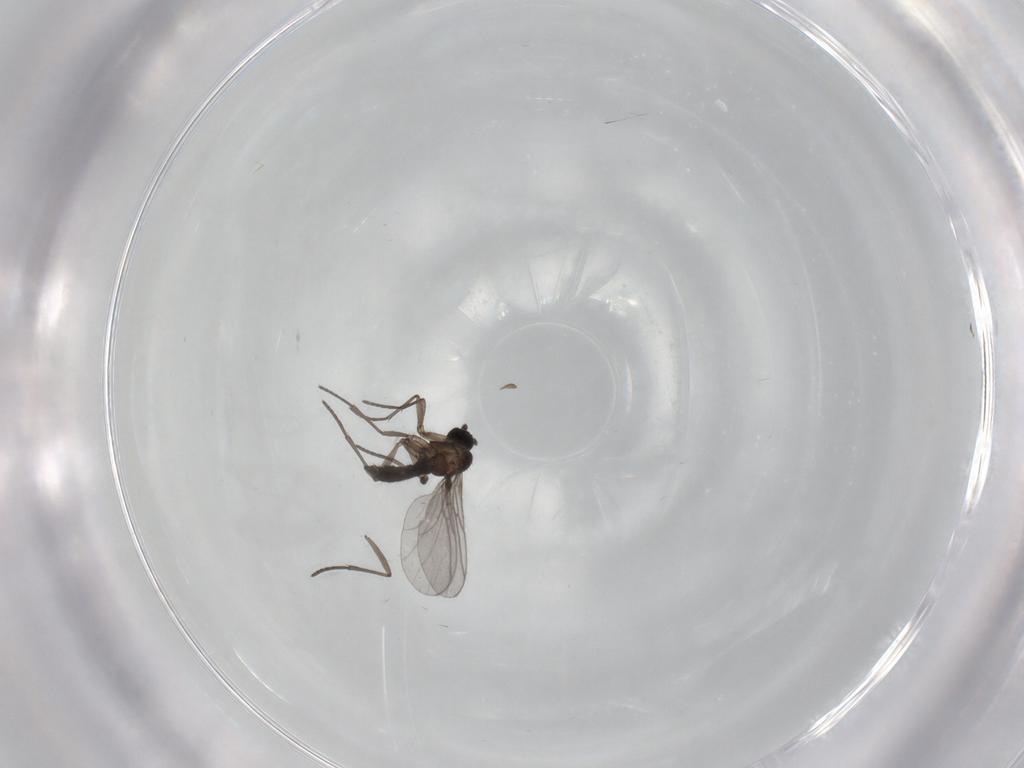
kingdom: Animalia
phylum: Arthropoda
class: Insecta
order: Diptera
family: Sciaridae
